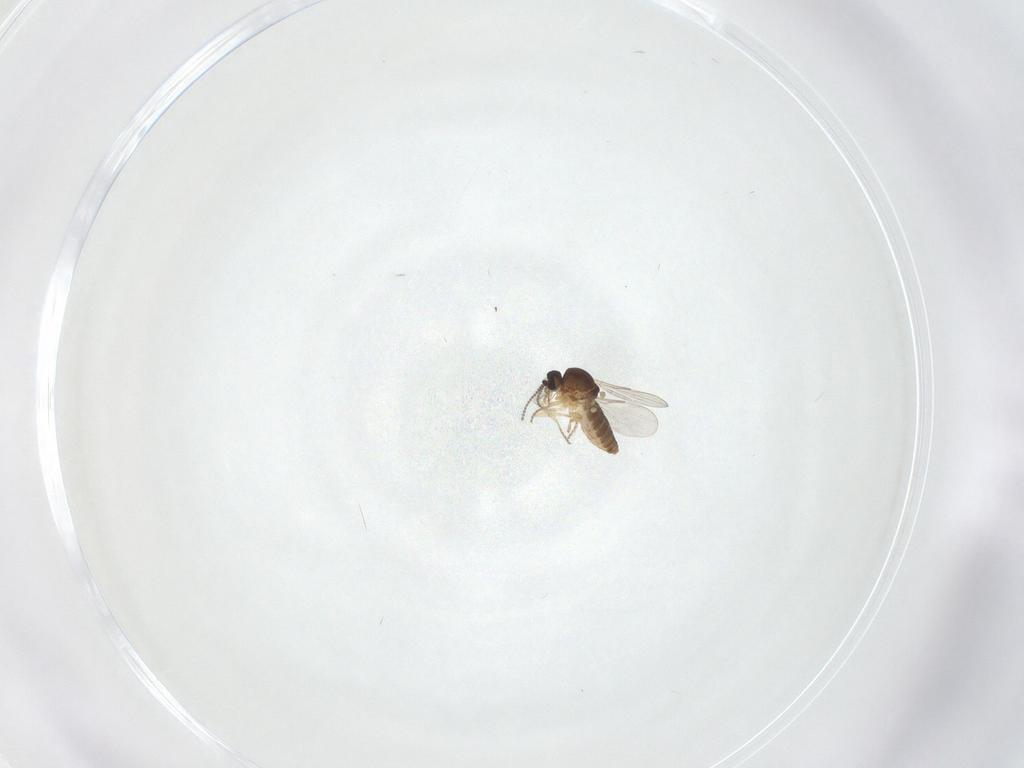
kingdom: Animalia
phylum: Arthropoda
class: Insecta
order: Diptera
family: Ceratopogonidae
